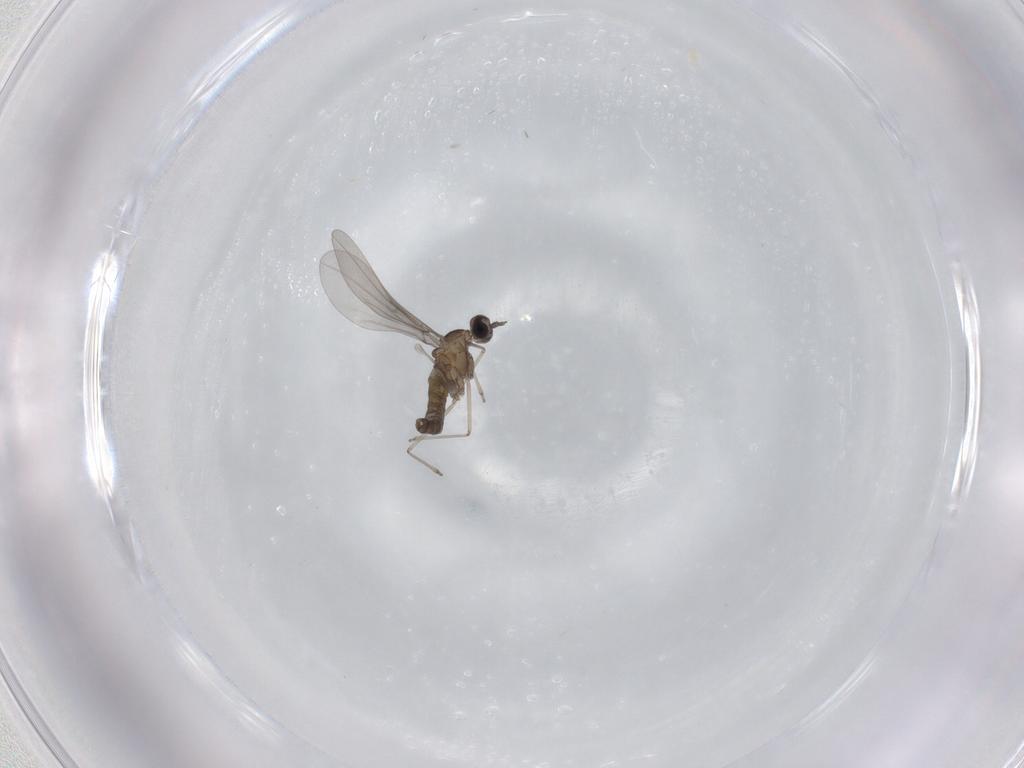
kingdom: Animalia
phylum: Arthropoda
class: Insecta
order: Diptera
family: Cecidomyiidae
